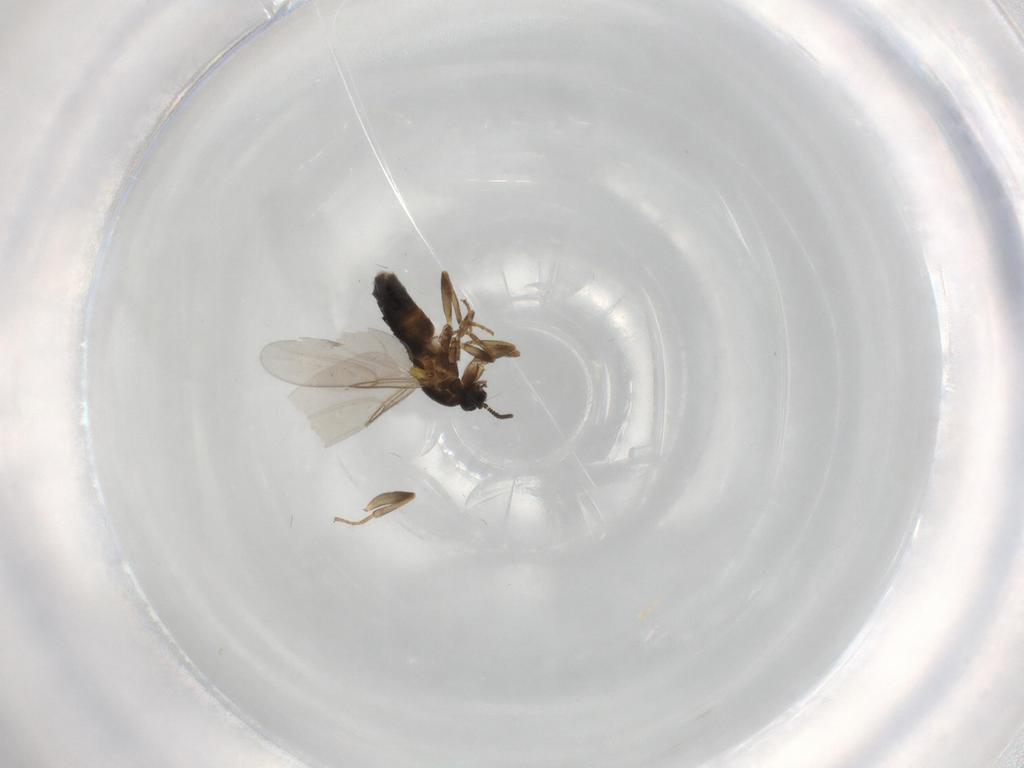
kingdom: Animalia
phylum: Arthropoda
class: Insecta
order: Diptera
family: Scatopsidae
